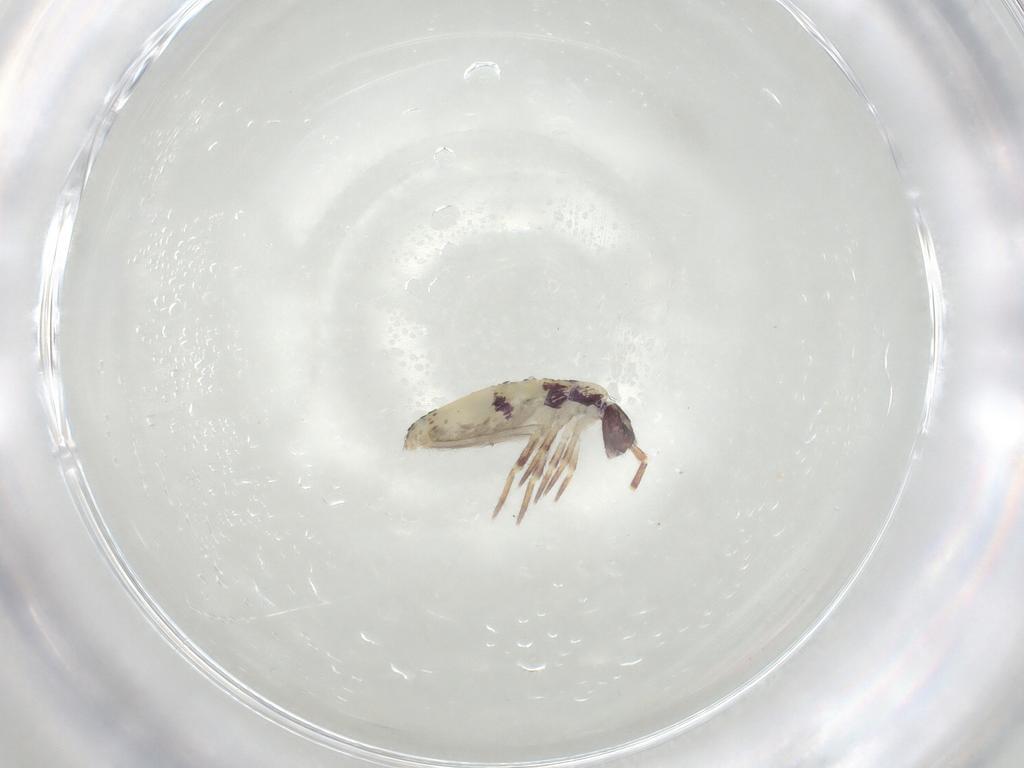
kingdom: Animalia
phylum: Arthropoda
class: Collembola
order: Entomobryomorpha
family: Entomobryidae
